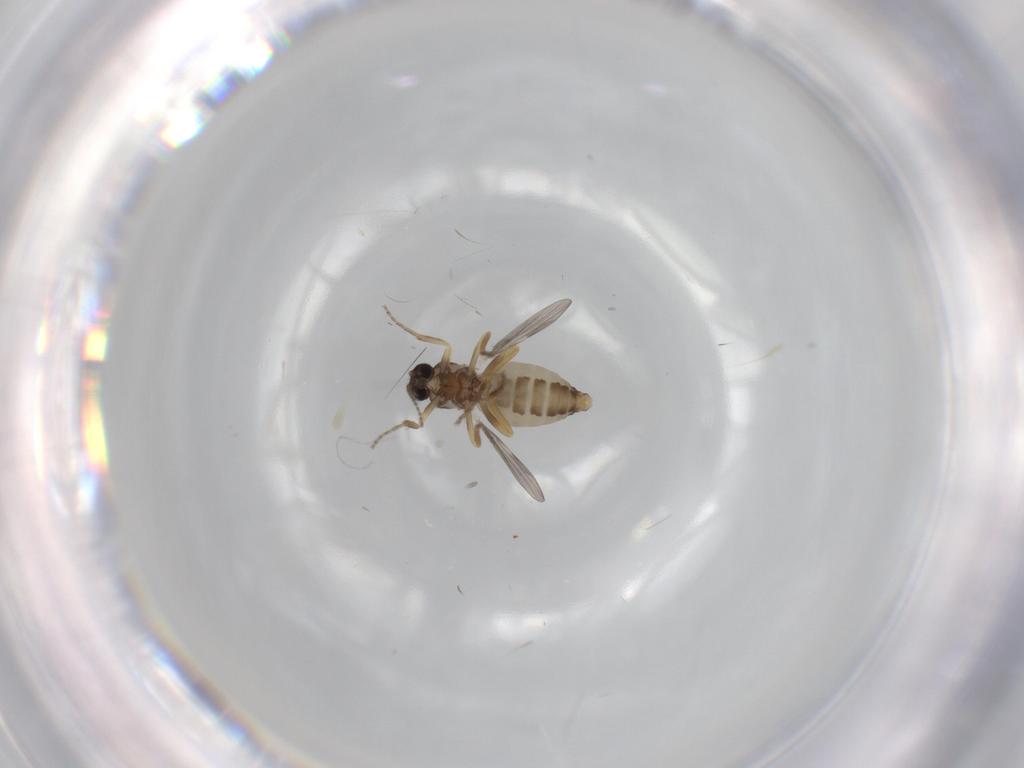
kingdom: Animalia
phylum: Arthropoda
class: Insecta
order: Diptera
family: Ceratopogonidae
